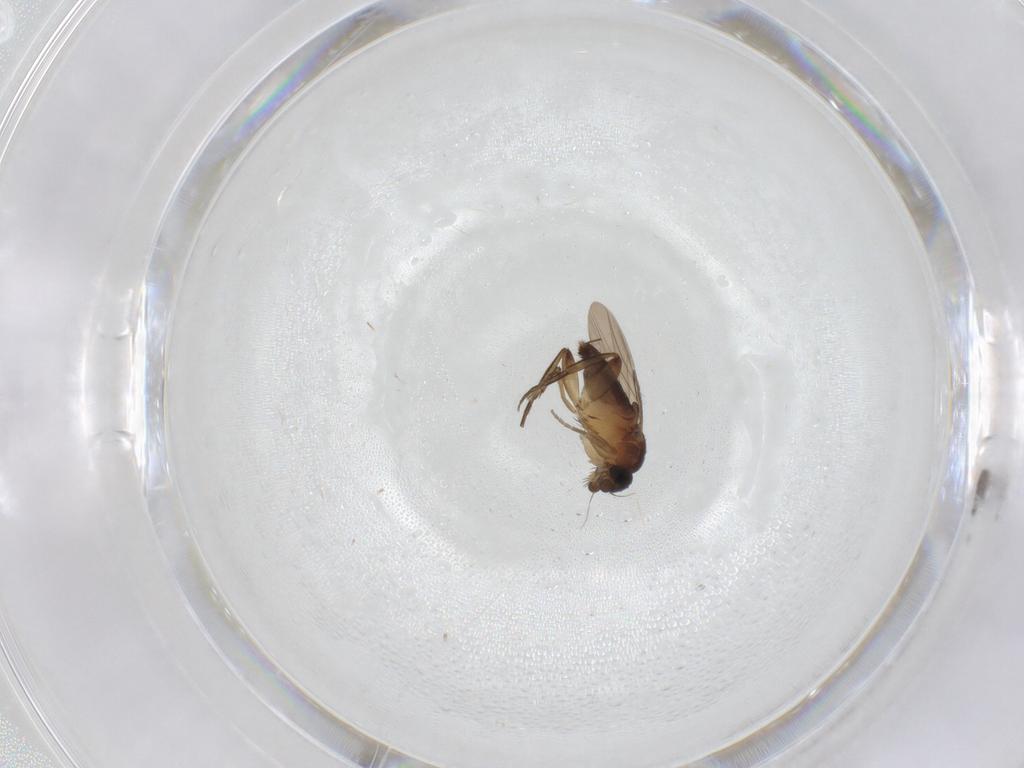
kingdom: Animalia
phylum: Arthropoda
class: Insecta
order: Diptera
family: Phoridae
